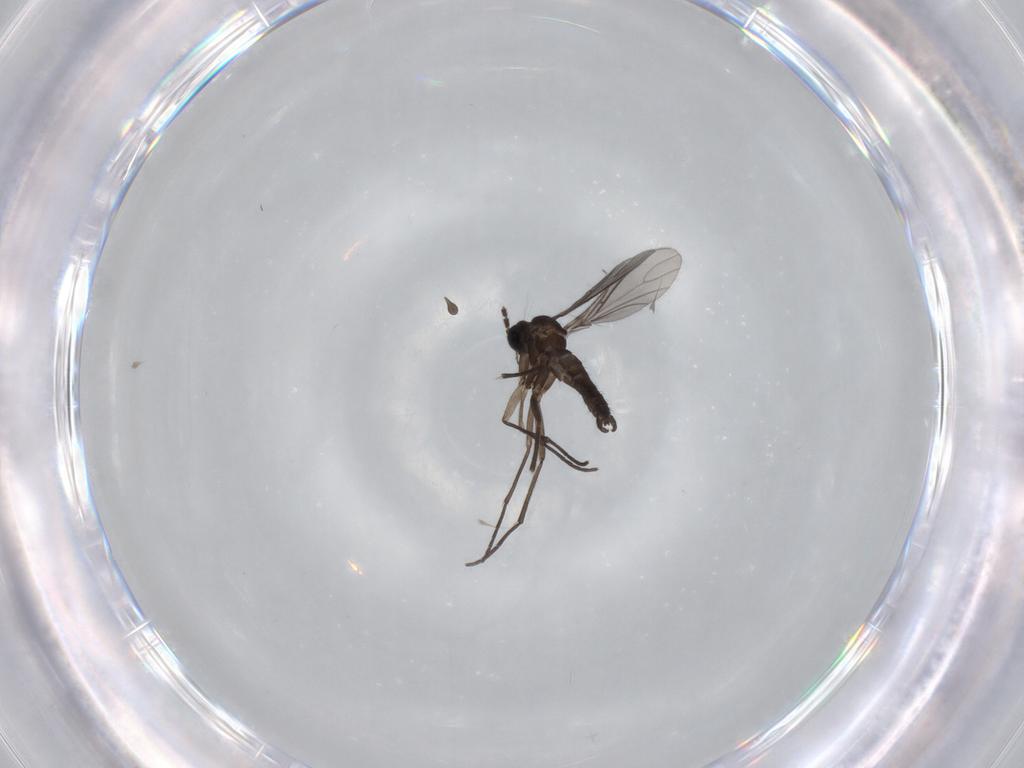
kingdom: Animalia
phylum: Arthropoda
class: Insecta
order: Diptera
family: Sciaridae
